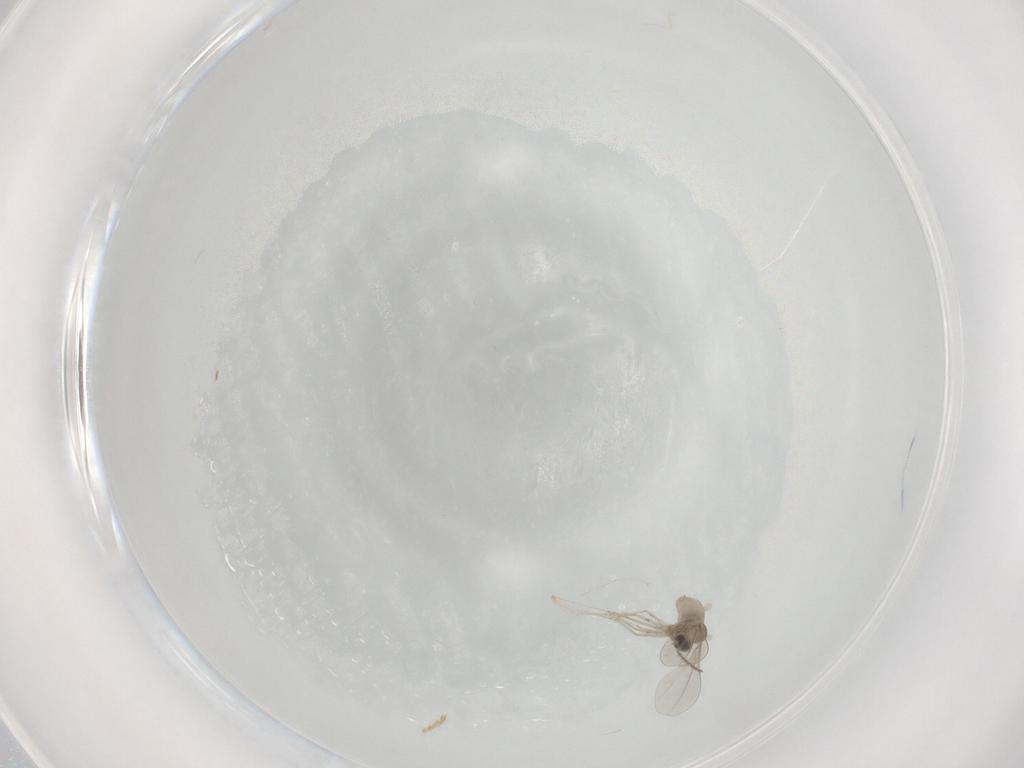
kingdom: Animalia
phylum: Arthropoda
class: Insecta
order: Diptera
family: Cecidomyiidae
